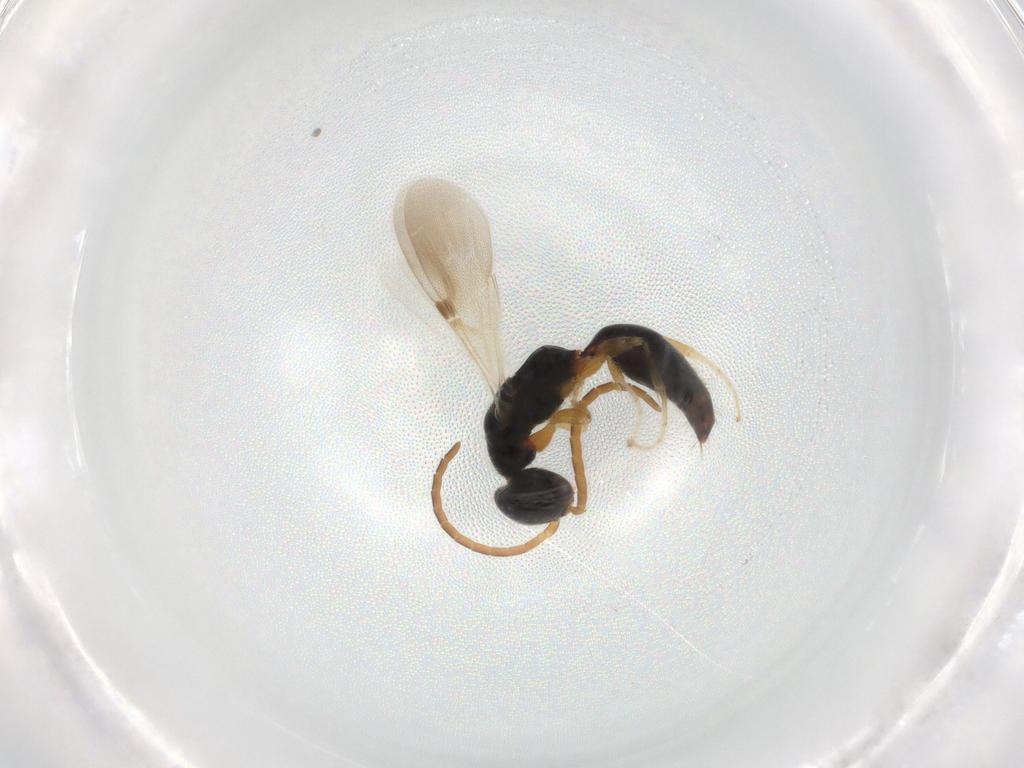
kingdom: Animalia
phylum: Arthropoda
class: Insecta
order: Hymenoptera
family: Bethylidae
